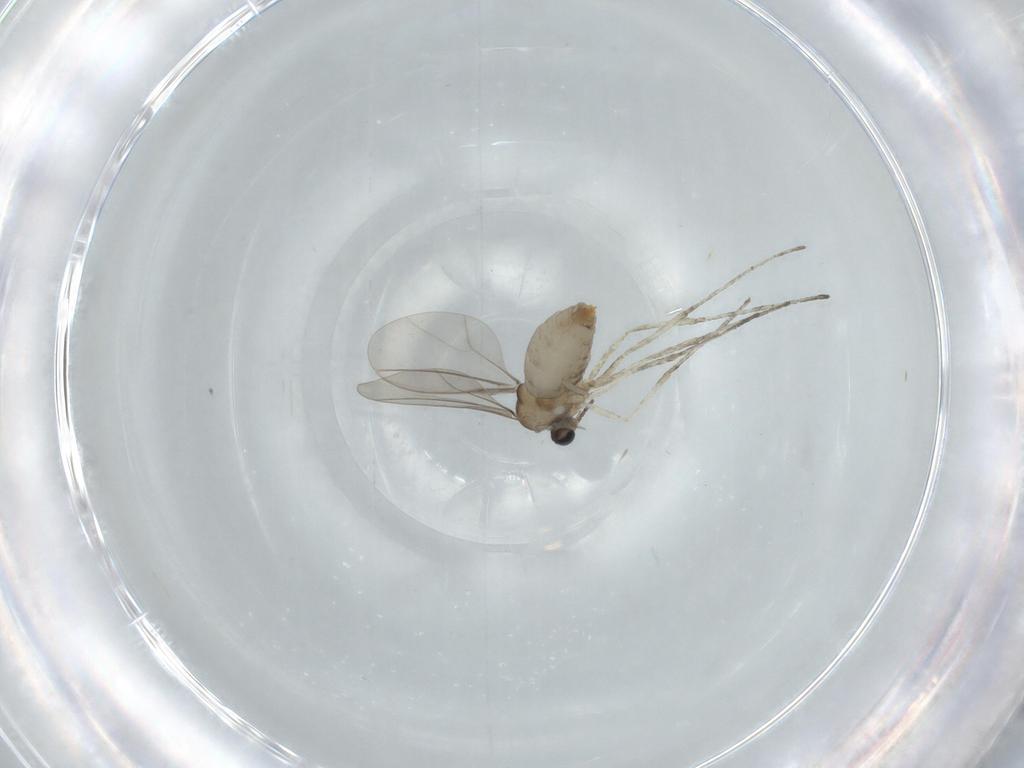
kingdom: Animalia
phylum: Arthropoda
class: Insecta
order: Diptera
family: Cecidomyiidae
